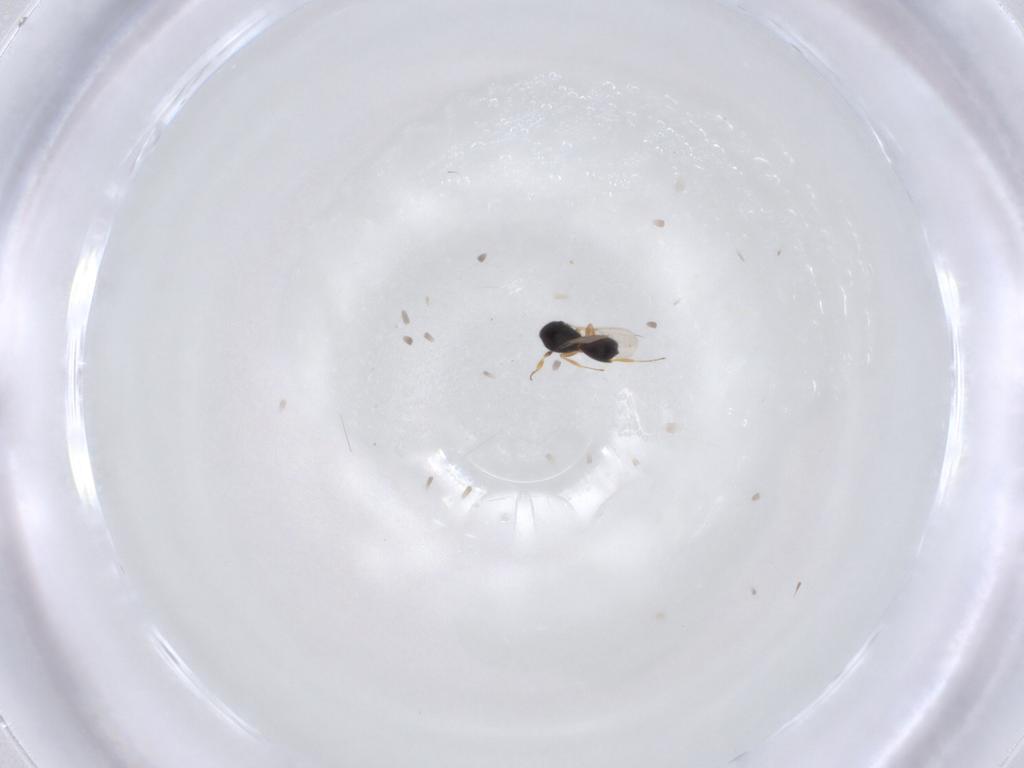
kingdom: Animalia
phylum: Arthropoda
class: Insecta
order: Hymenoptera
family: Scelionidae
